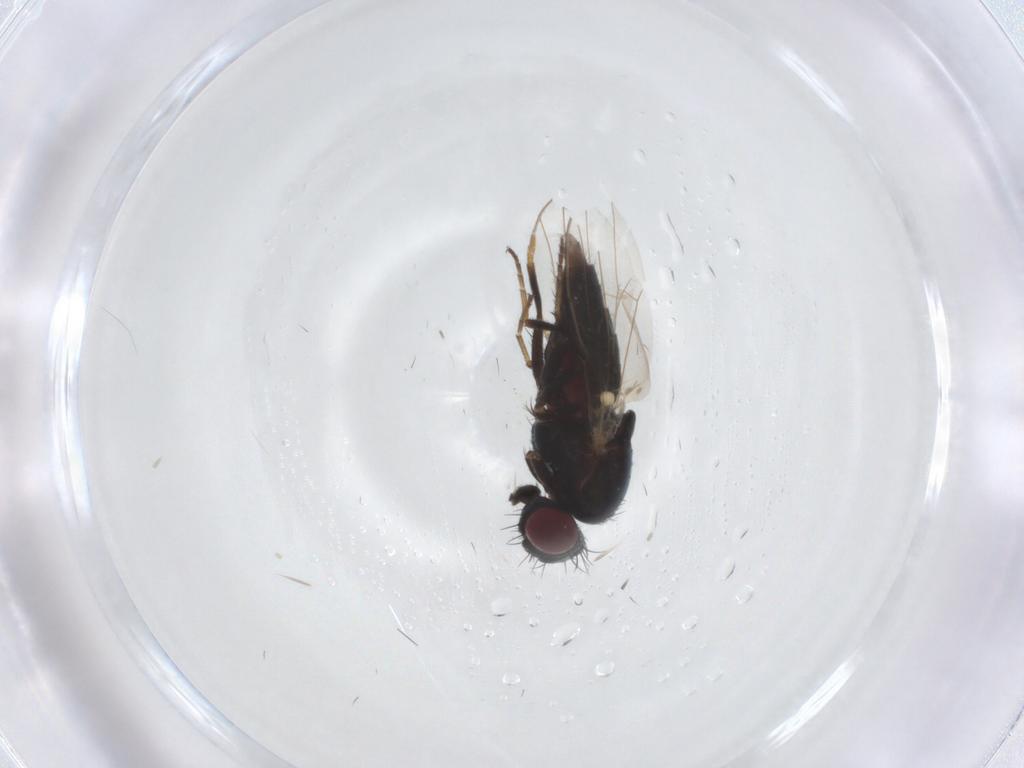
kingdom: Animalia
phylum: Arthropoda
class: Insecta
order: Diptera
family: Carnidae
